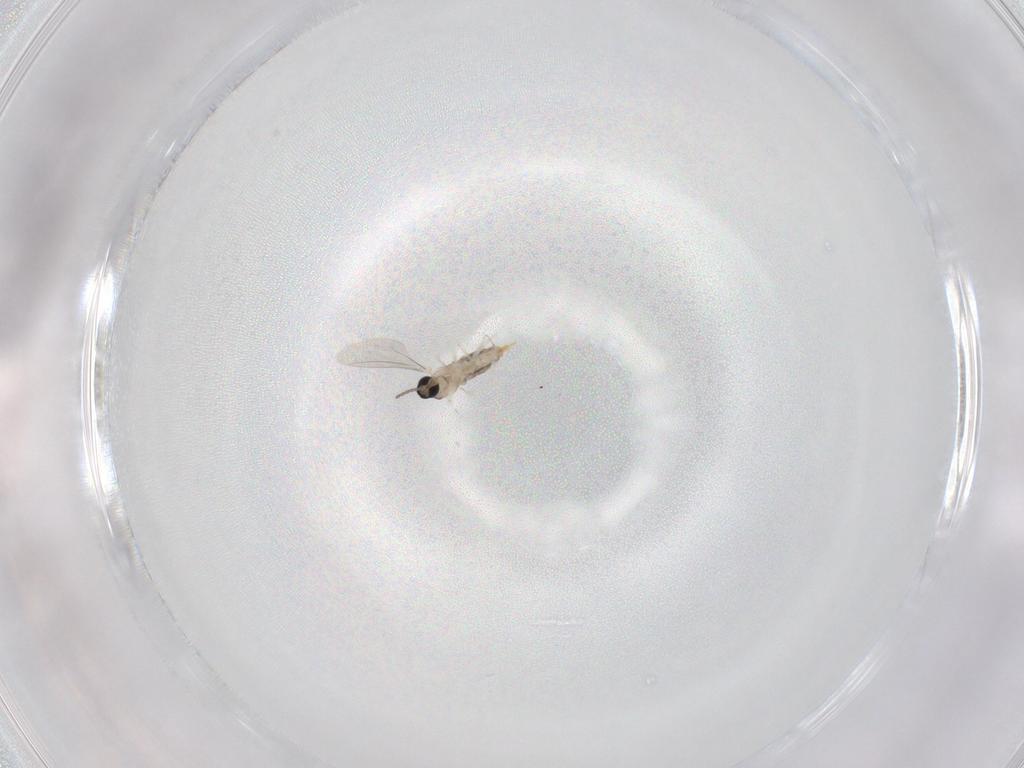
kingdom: Animalia
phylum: Arthropoda
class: Insecta
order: Diptera
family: Cecidomyiidae
